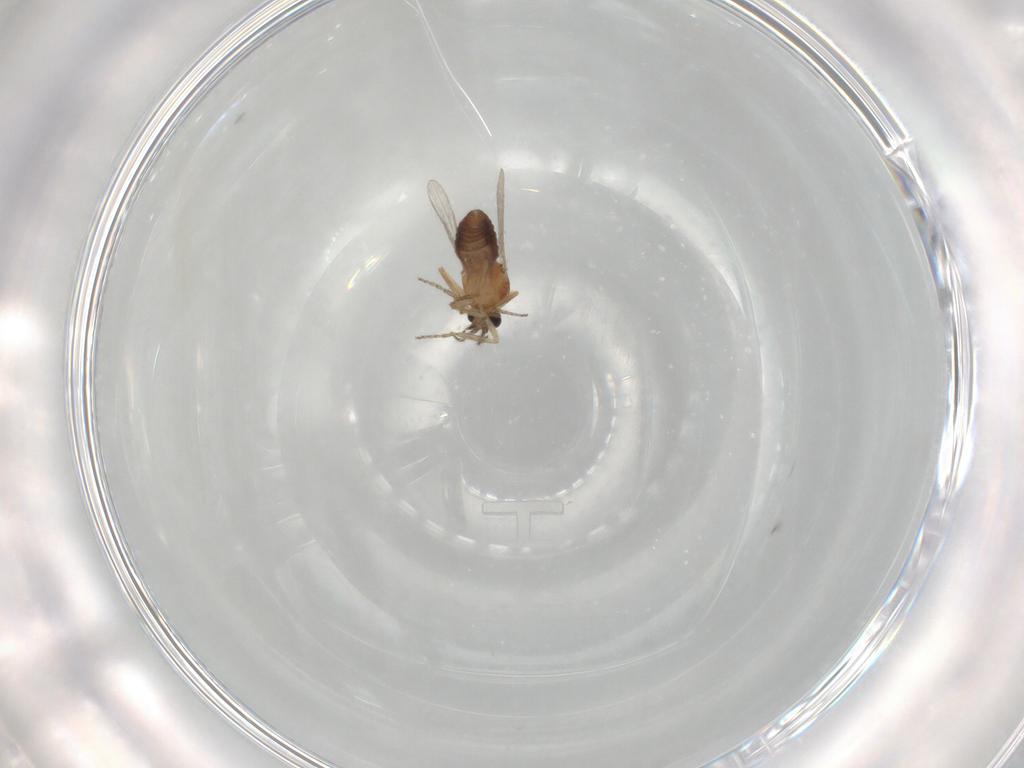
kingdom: Animalia
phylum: Arthropoda
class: Insecta
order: Diptera
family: Ceratopogonidae
